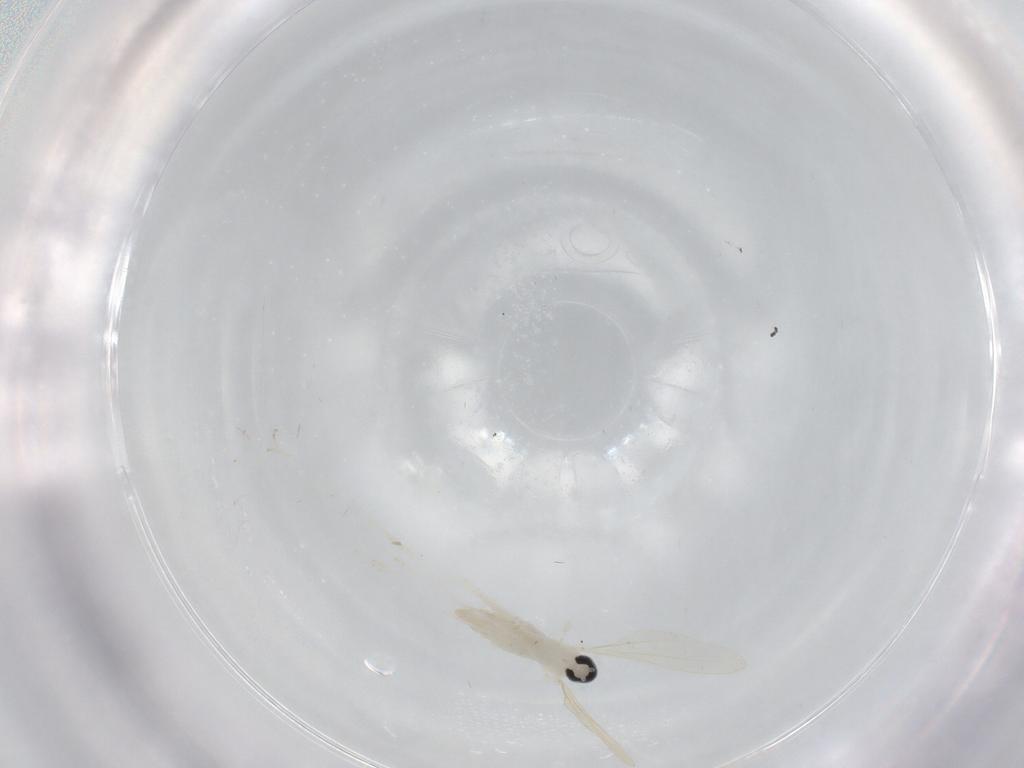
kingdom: Animalia
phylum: Arthropoda
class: Insecta
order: Diptera
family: Chironomidae
